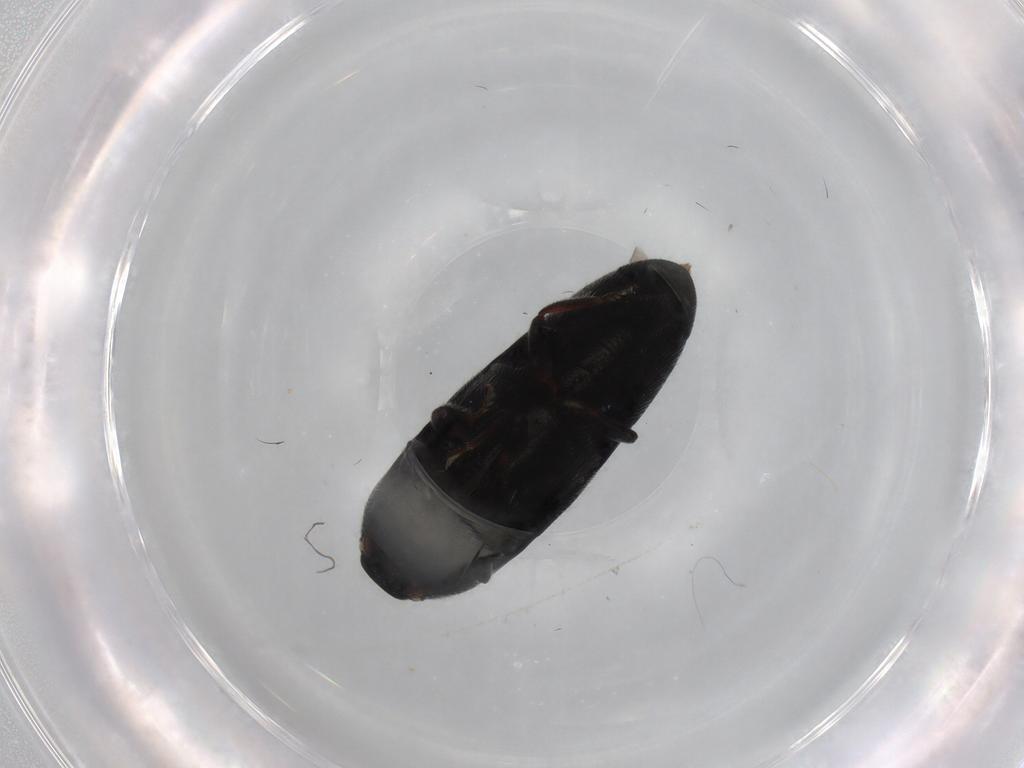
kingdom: Animalia
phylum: Arthropoda
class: Insecta
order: Coleoptera
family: Elateridae
